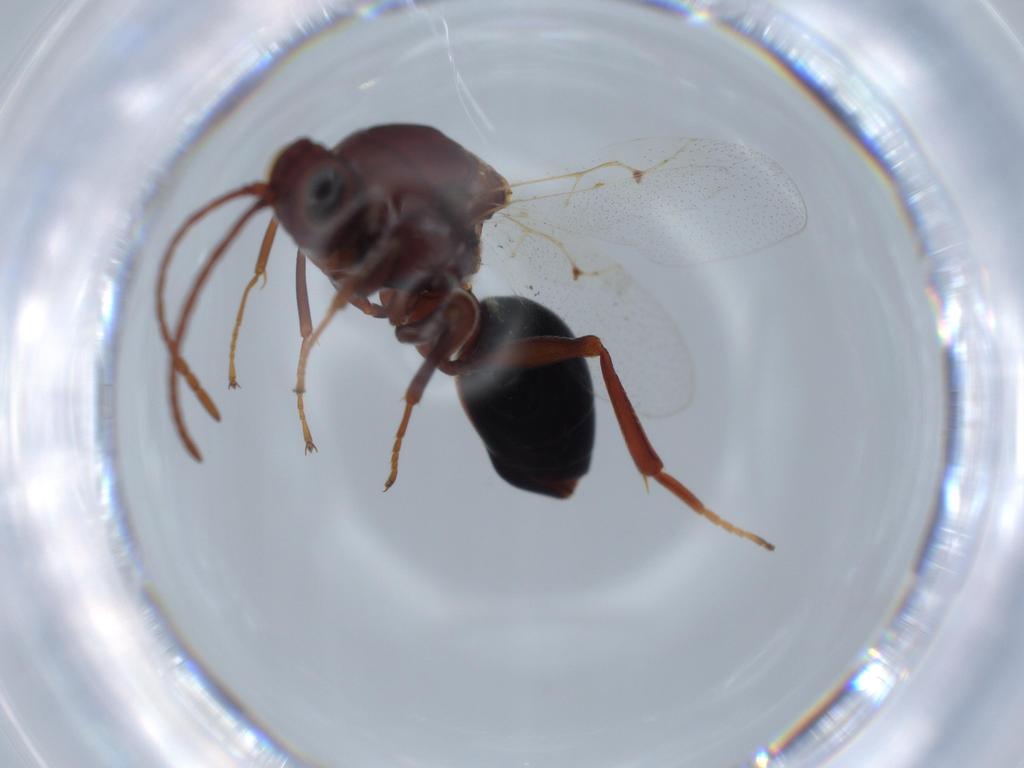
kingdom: Animalia
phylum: Arthropoda
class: Insecta
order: Hymenoptera
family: Figitidae
